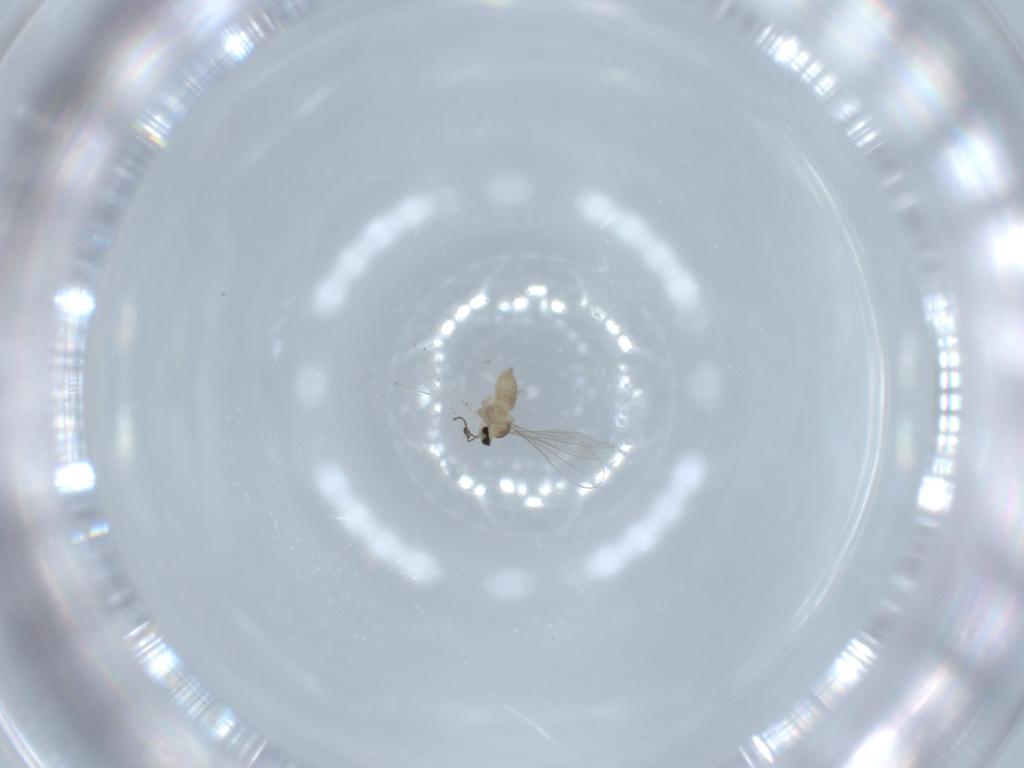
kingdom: Animalia
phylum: Arthropoda
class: Insecta
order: Diptera
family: Cecidomyiidae
